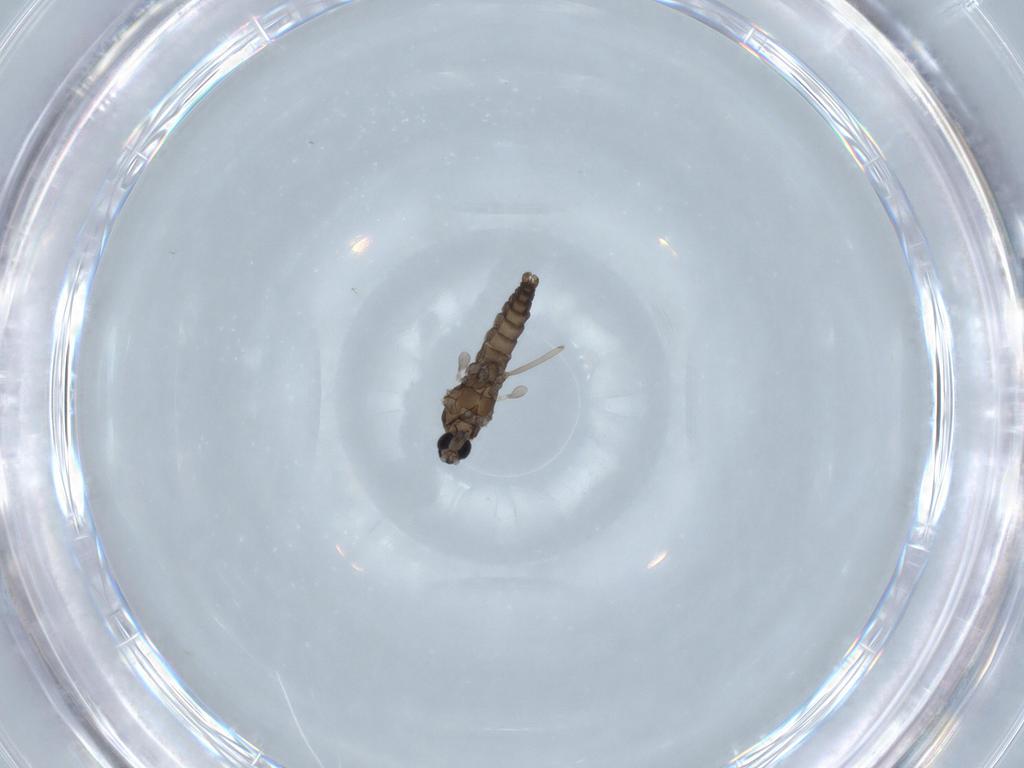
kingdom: Animalia
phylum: Arthropoda
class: Insecta
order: Diptera
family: Cecidomyiidae
